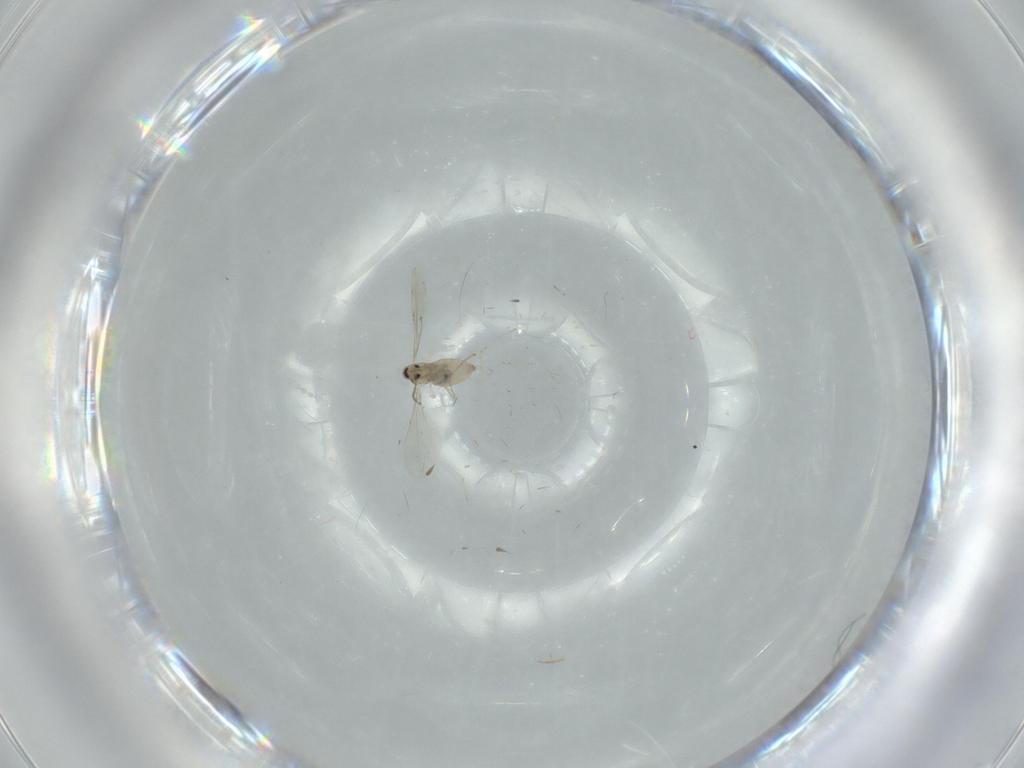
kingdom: Animalia
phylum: Arthropoda
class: Insecta
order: Diptera
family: Cecidomyiidae
